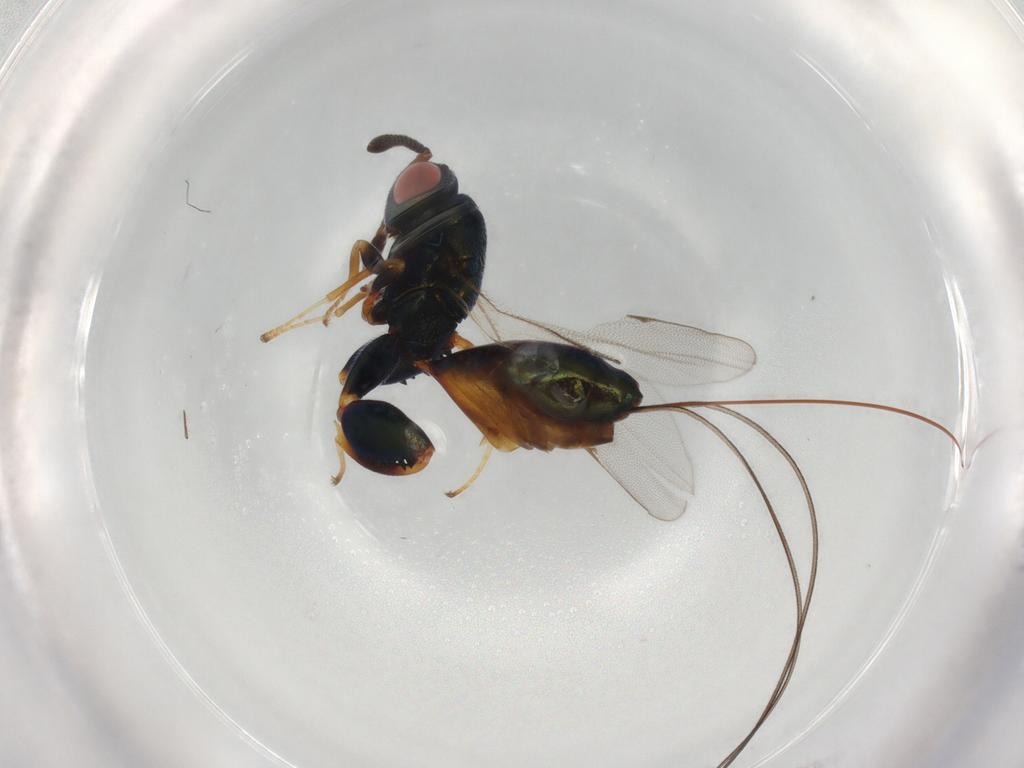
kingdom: Animalia
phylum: Arthropoda
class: Insecta
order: Hymenoptera
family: Torymidae
